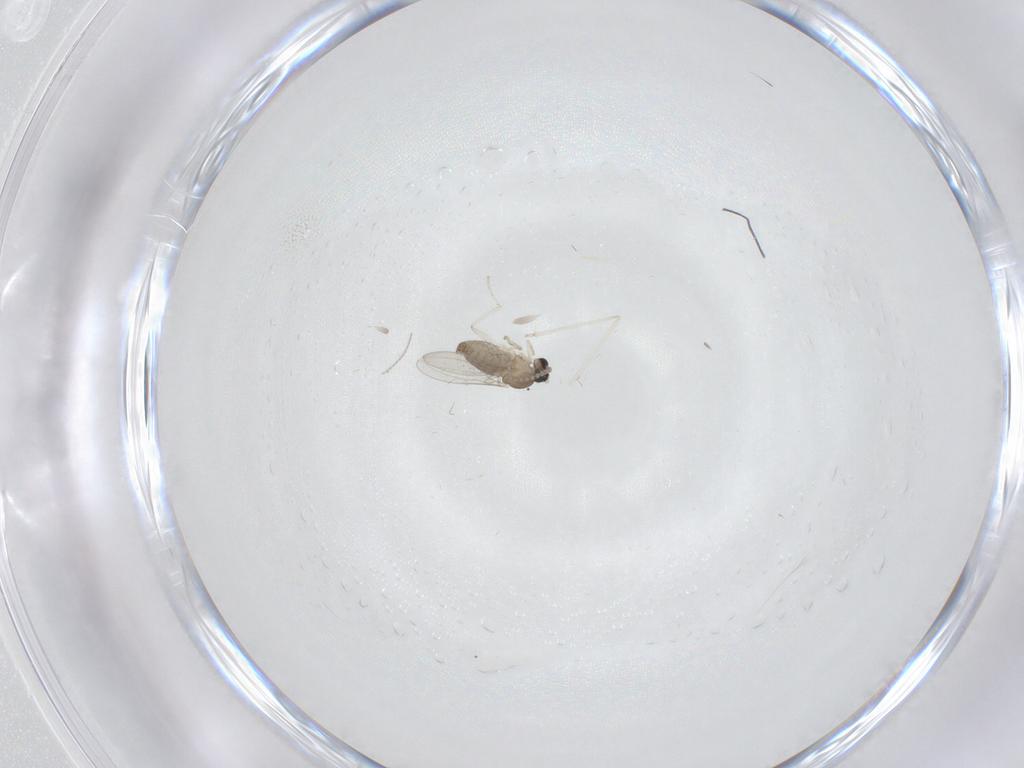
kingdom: Animalia
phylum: Arthropoda
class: Insecta
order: Diptera
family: Cecidomyiidae
